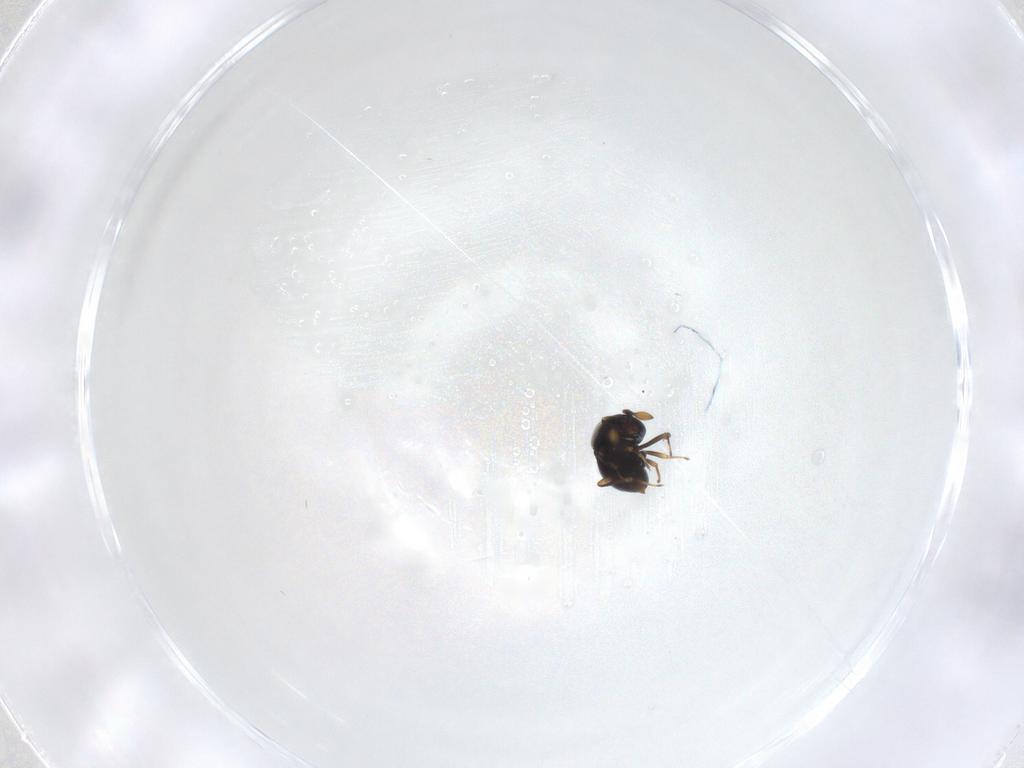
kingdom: Animalia
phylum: Arthropoda
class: Insecta
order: Hymenoptera
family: Scelionidae
